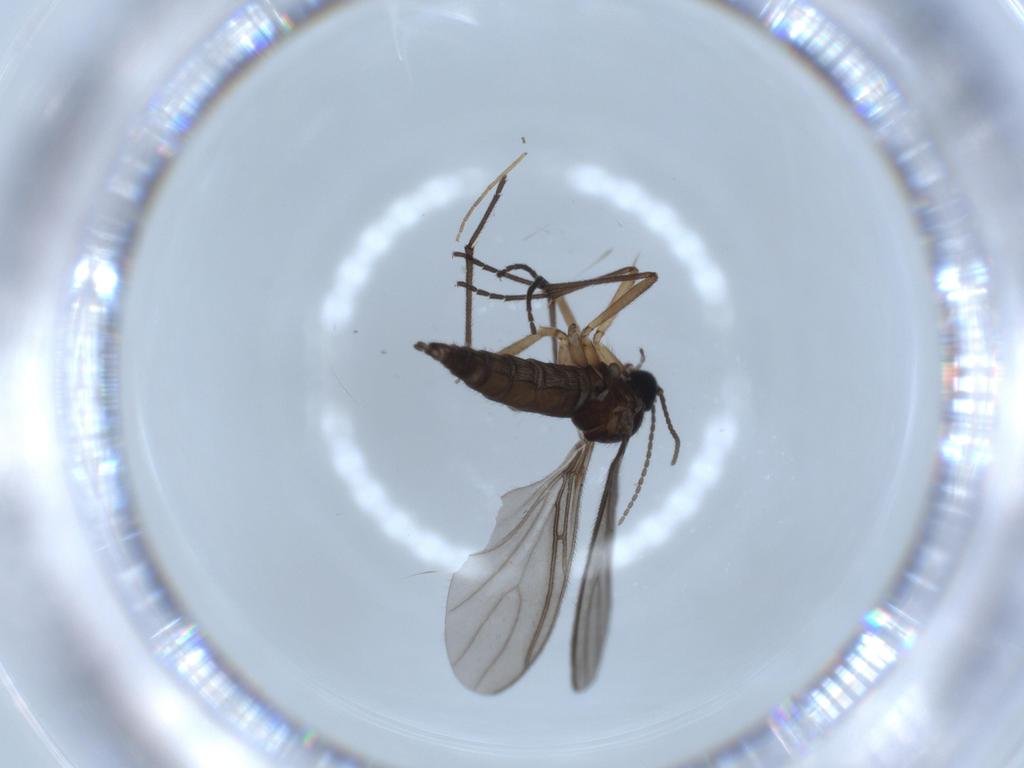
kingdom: Animalia
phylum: Arthropoda
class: Insecta
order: Diptera
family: Sciaridae
